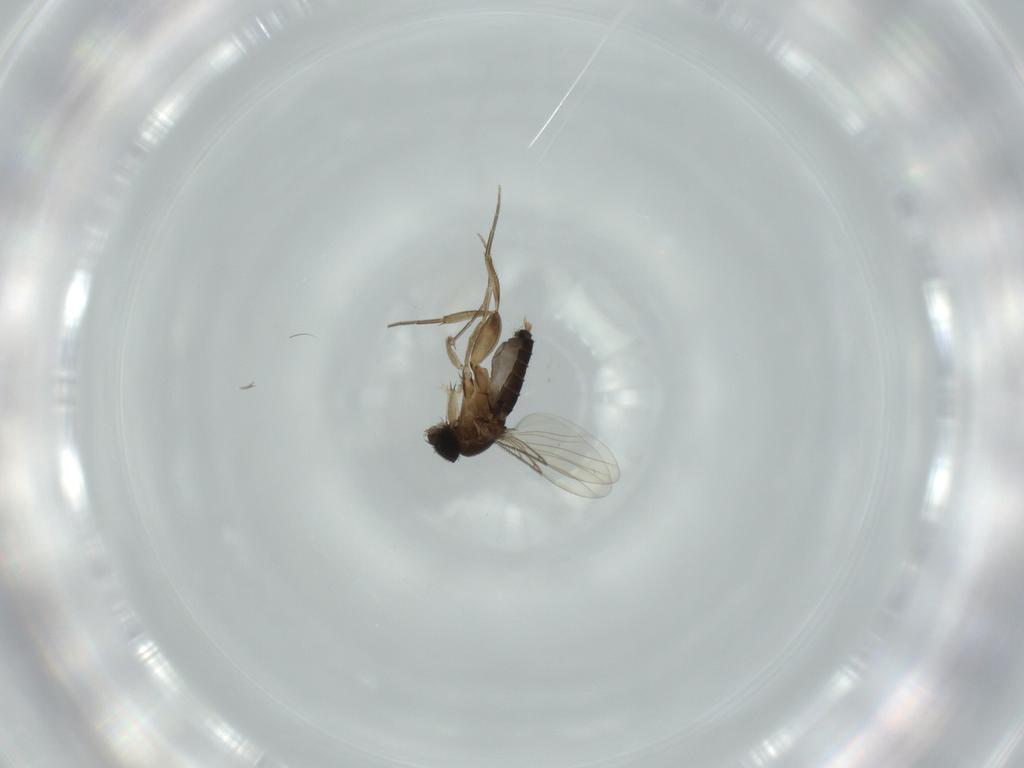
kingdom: Animalia
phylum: Arthropoda
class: Insecta
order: Diptera
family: Phoridae
